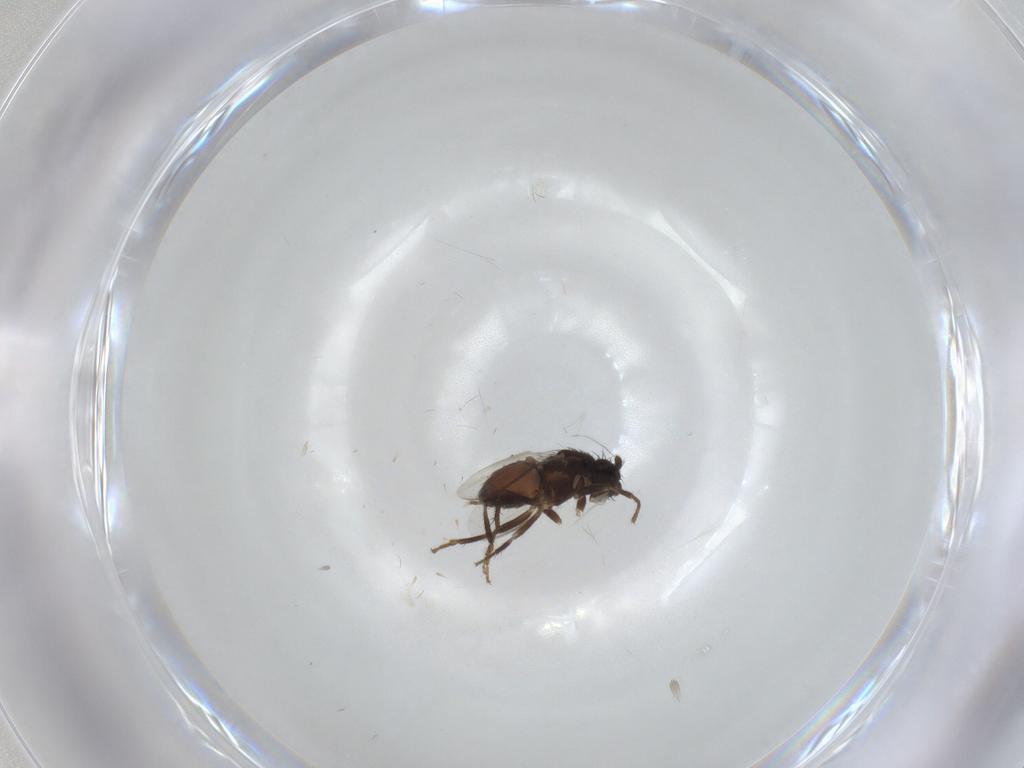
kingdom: Animalia
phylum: Arthropoda
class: Insecta
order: Diptera
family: Sphaeroceridae
